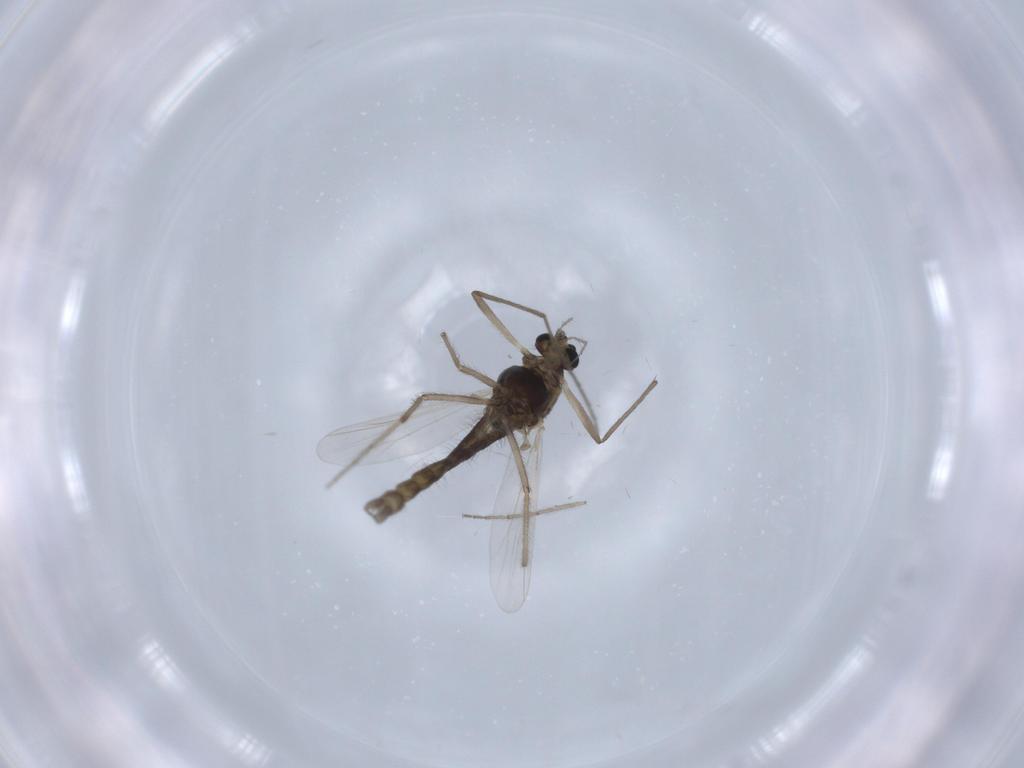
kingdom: Animalia
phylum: Arthropoda
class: Insecta
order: Diptera
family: Chironomidae
